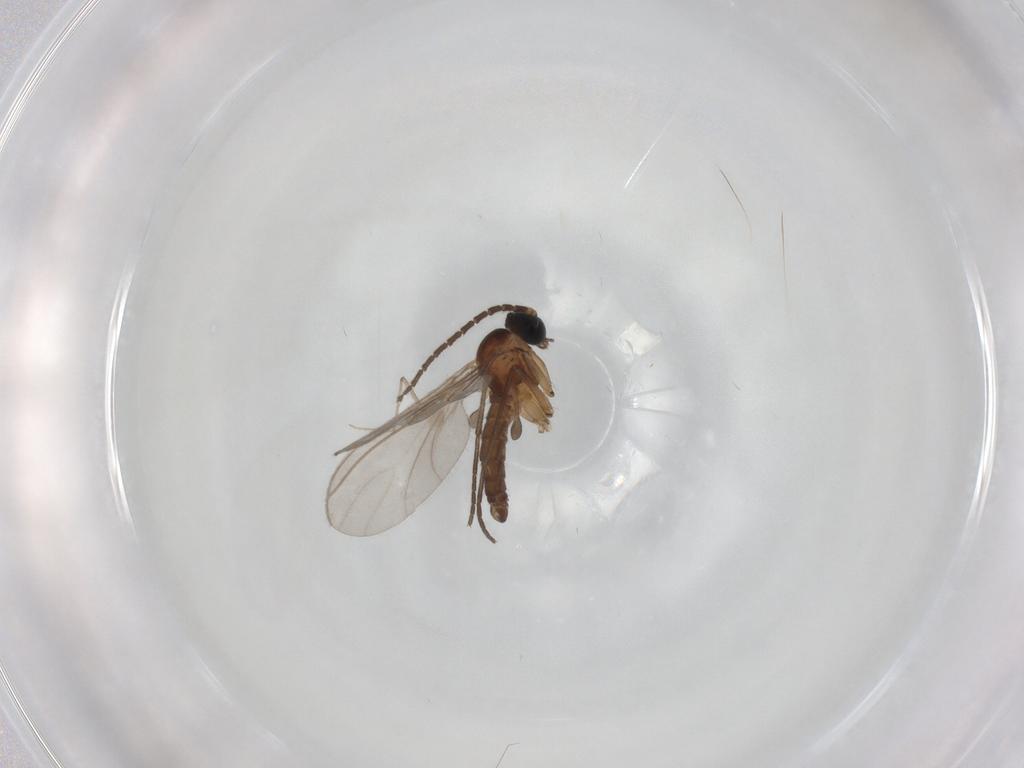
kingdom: Animalia
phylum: Arthropoda
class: Insecta
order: Diptera
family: Sciaridae
